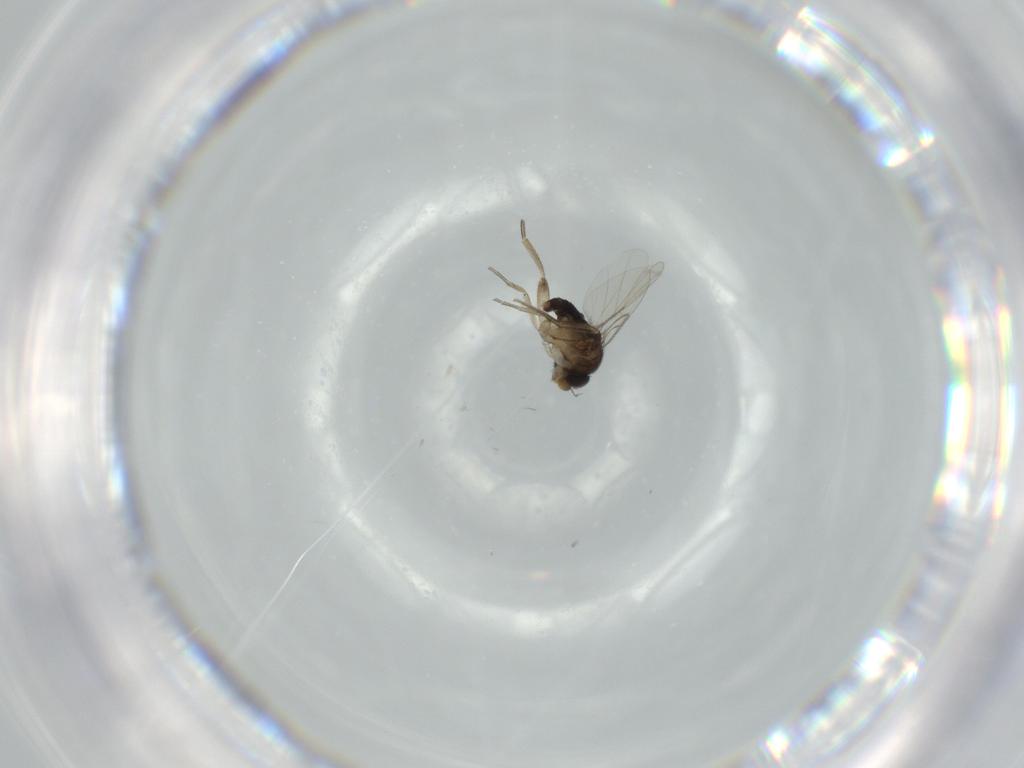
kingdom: Animalia
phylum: Arthropoda
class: Insecta
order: Diptera
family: Phoridae
